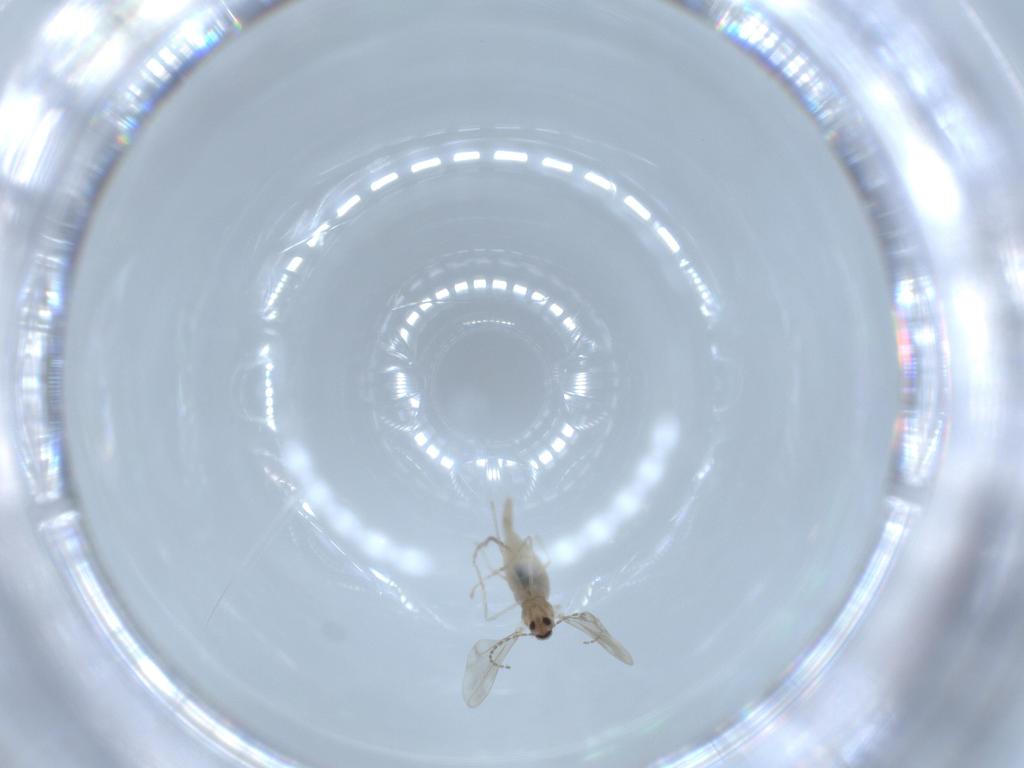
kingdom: Animalia
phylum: Arthropoda
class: Insecta
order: Diptera
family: Cecidomyiidae
